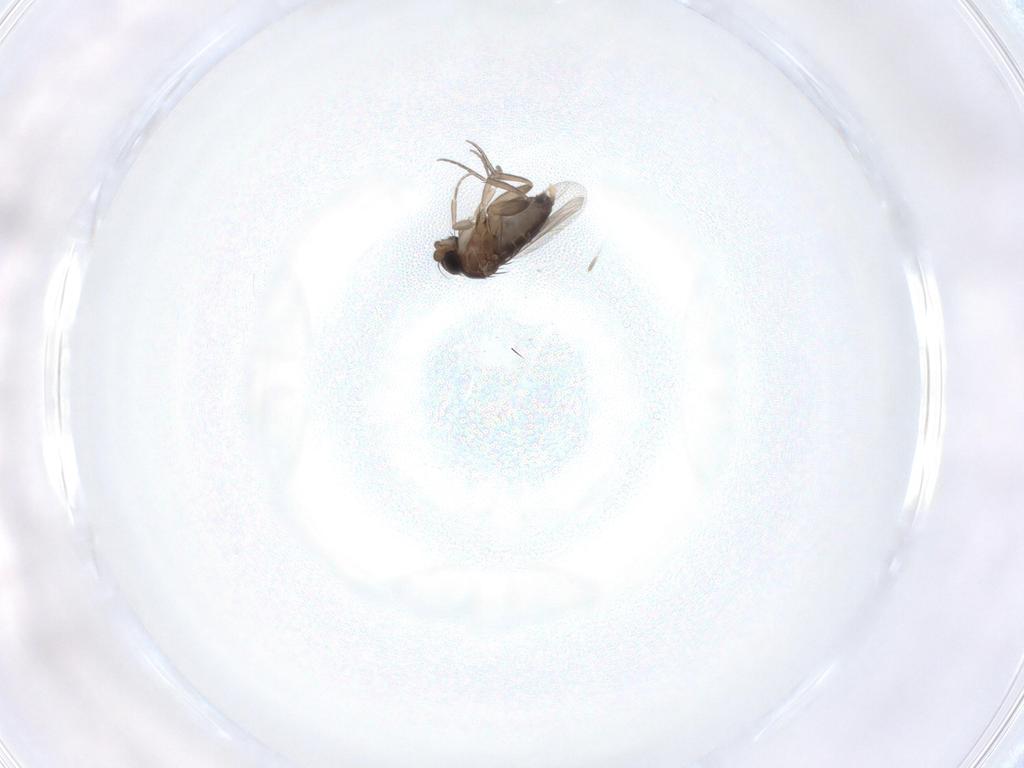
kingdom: Animalia
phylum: Arthropoda
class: Insecta
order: Diptera
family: Phoridae
